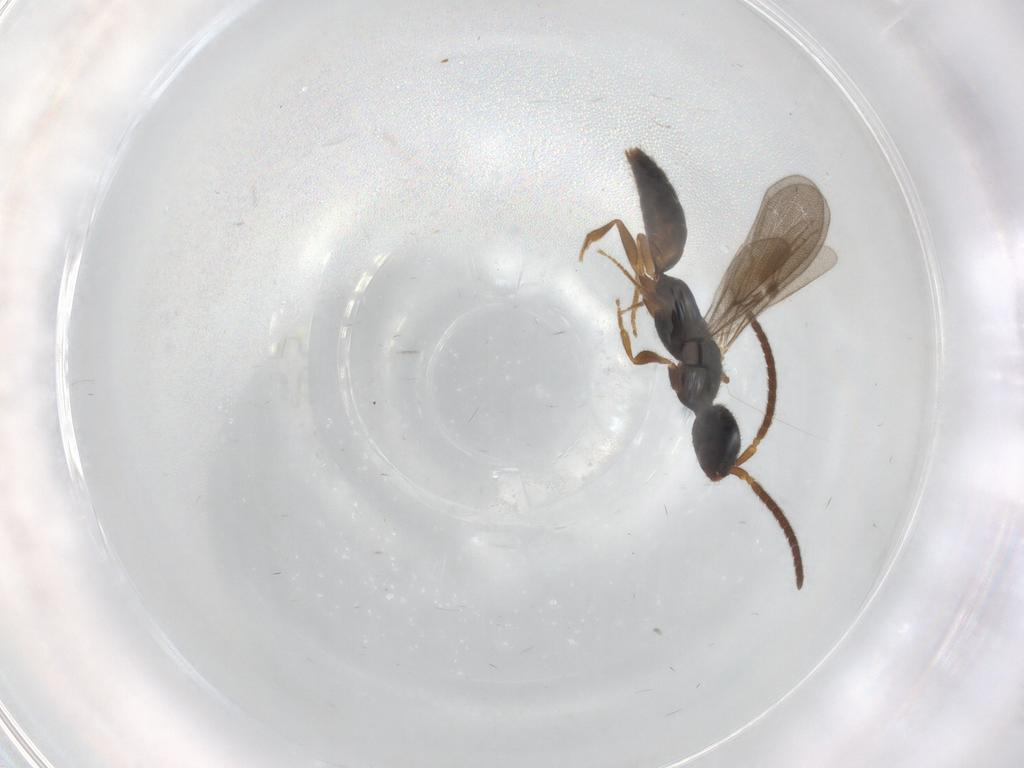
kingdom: Animalia
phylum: Arthropoda
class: Insecta
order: Hymenoptera
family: Bethylidae
